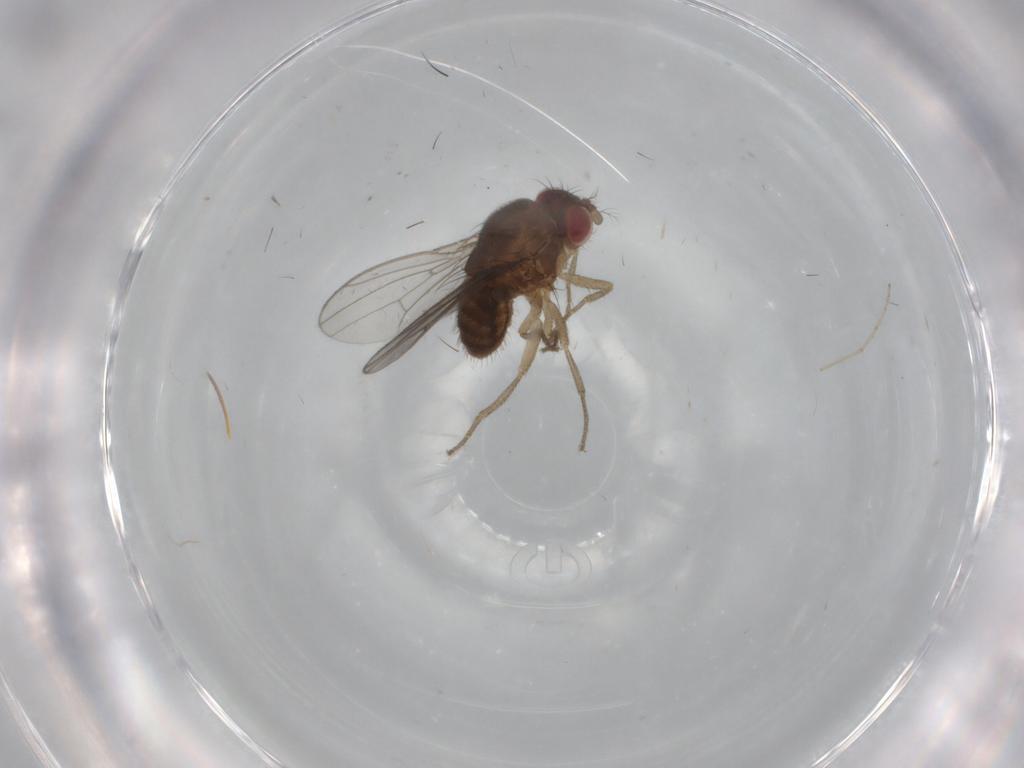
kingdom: Animalia
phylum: Arthropoda
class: Insecta
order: Diptera
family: Drosophilidae
